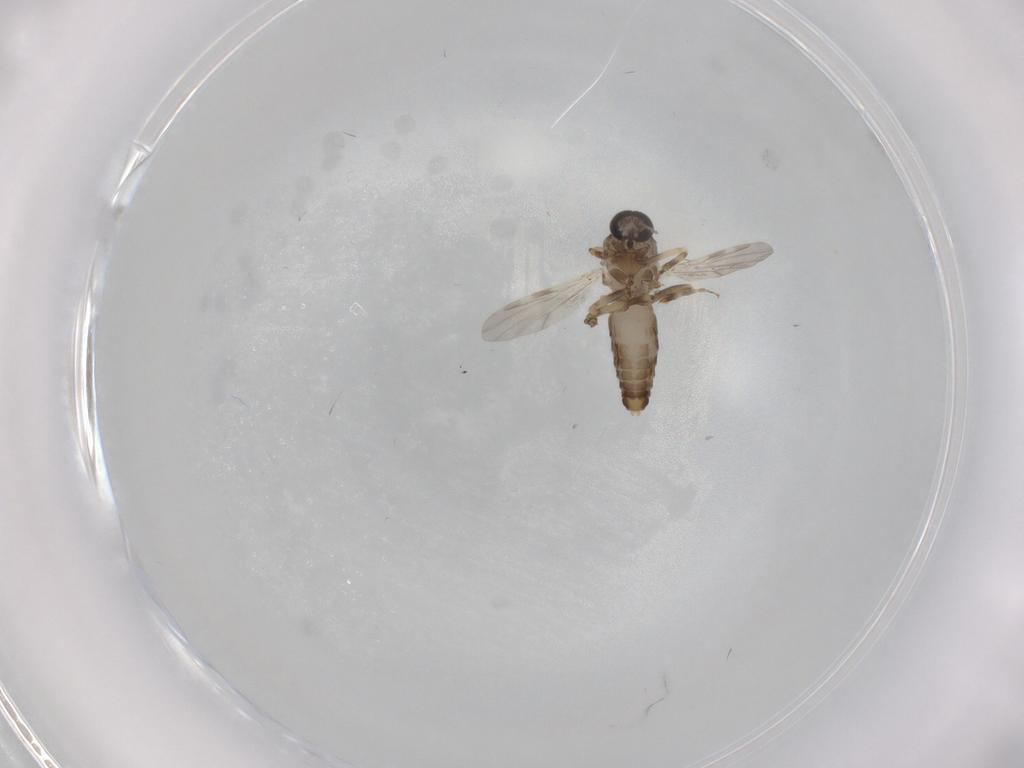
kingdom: Animalia
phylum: Arthropoda
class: Insecta
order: Diptera
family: Ceratopogonidae
